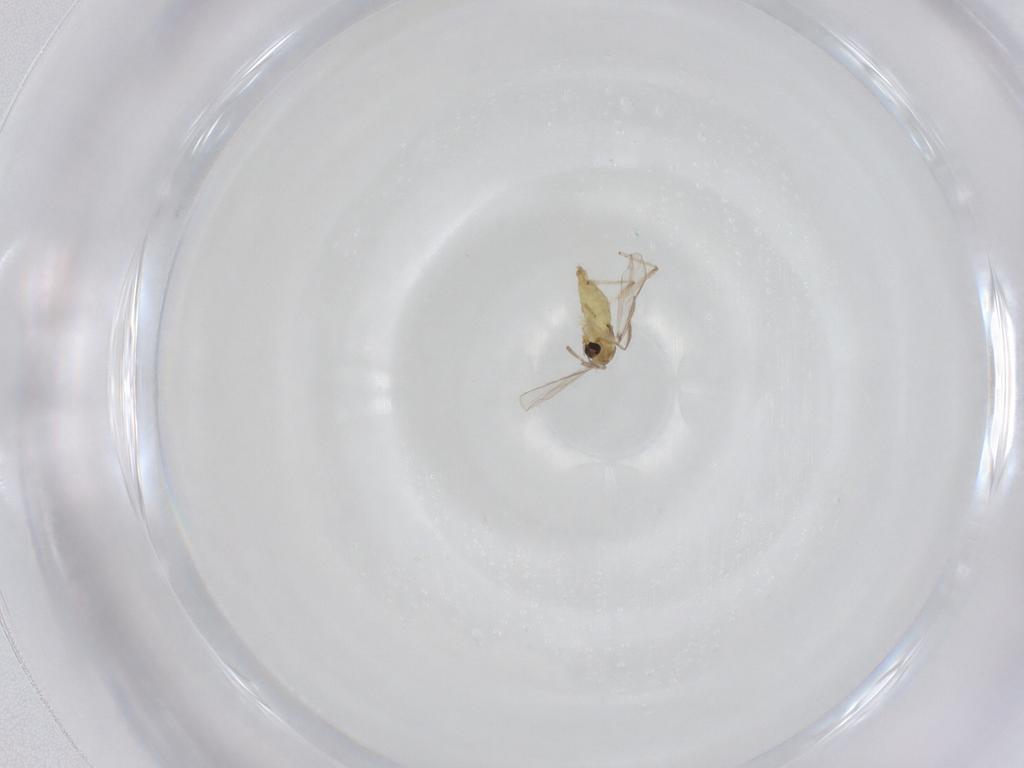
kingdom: Animalia
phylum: Arthropoda
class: Insecta
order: Diptera
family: Chironomidae
